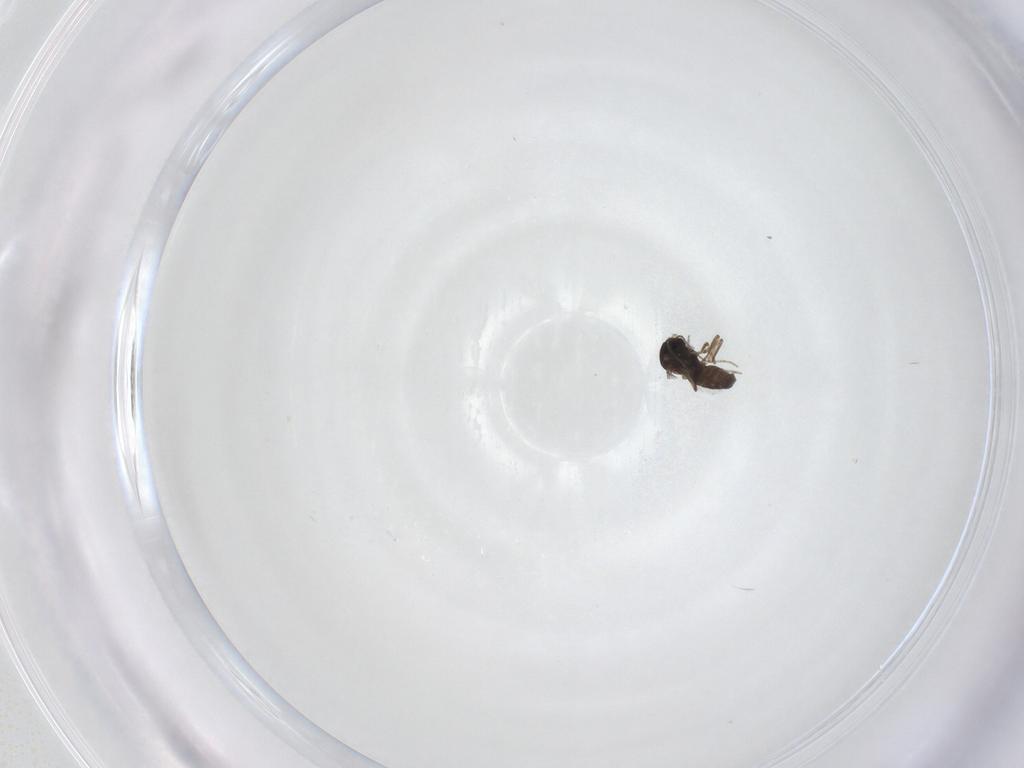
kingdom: Animalia
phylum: Arthropoda
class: Insecta
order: Diptera
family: Ceratopogonidae
